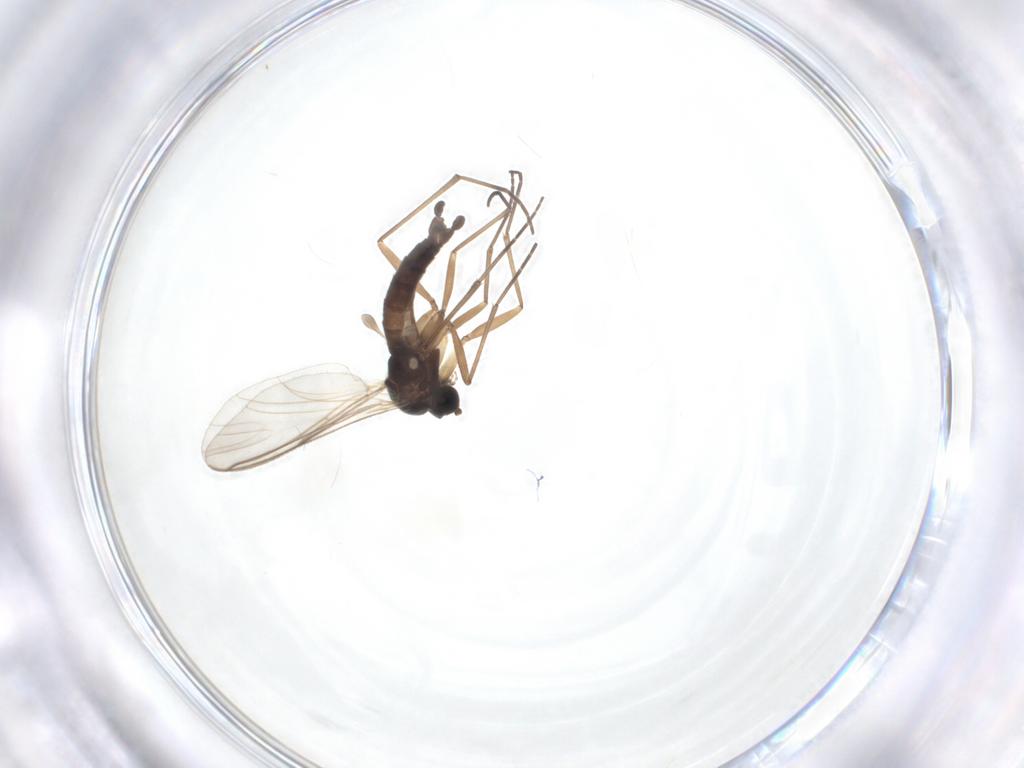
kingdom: Animalia
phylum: Arthropoda
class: Insecta
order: Diptera
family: Sciaridae
